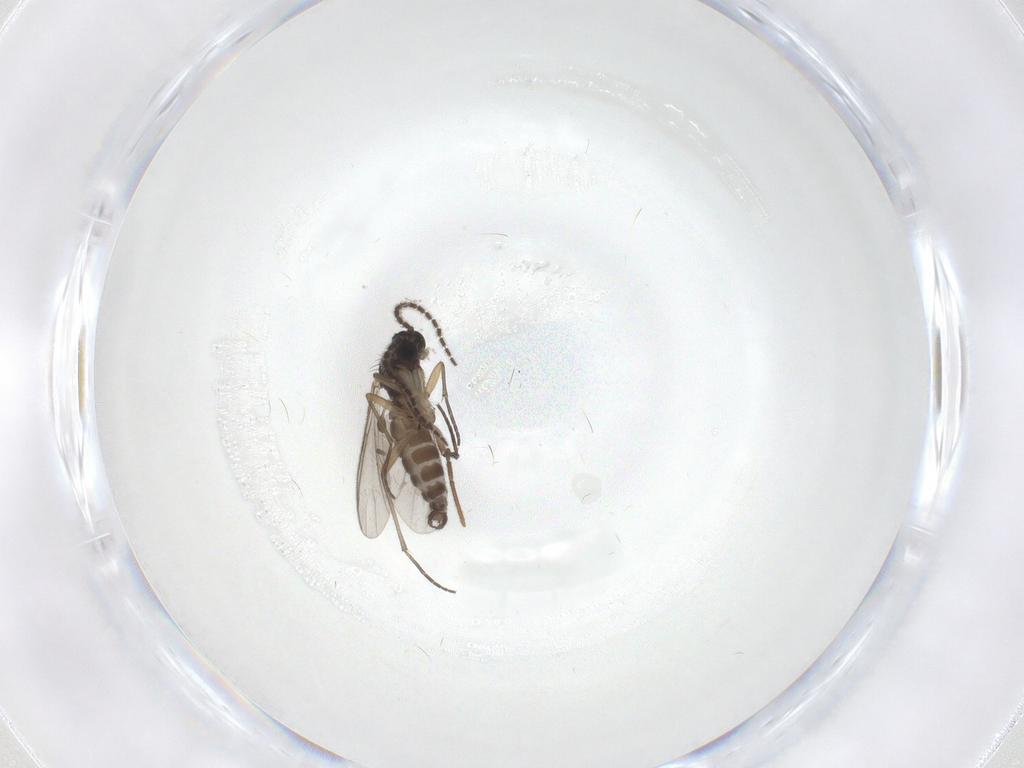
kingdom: Animalia
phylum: Arthropoda
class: Insecta
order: Diptera
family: Sciaridae
